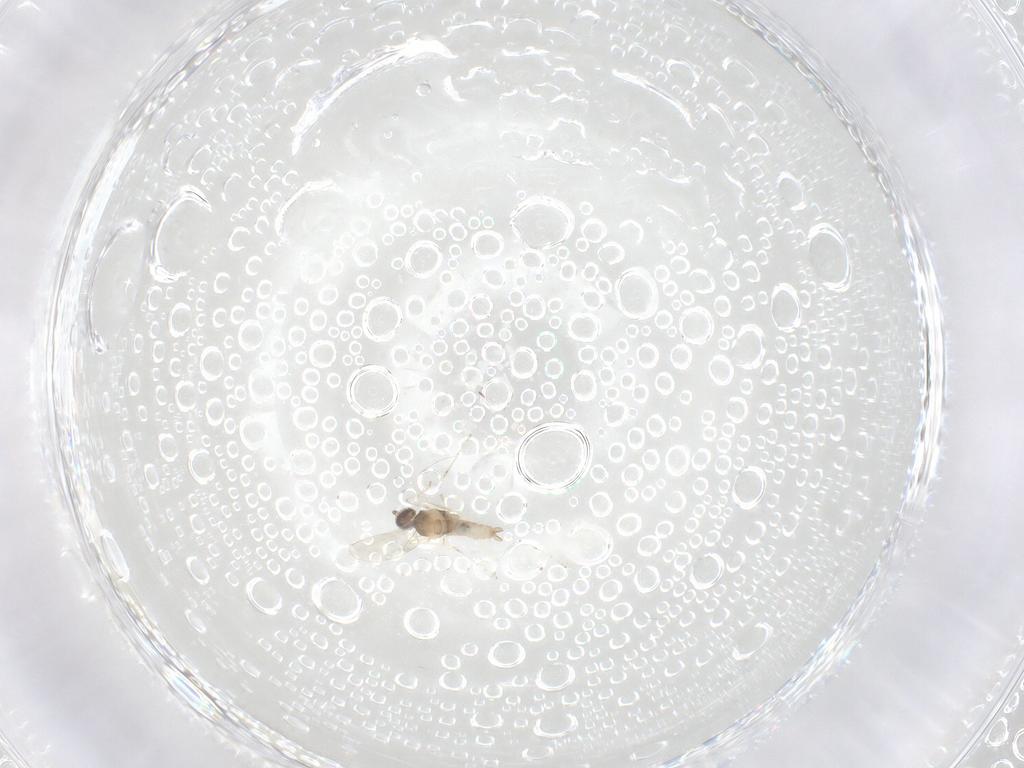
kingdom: Animalia
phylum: Arthropoda
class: Insecta
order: Diptera
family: Cecidomyiidae
